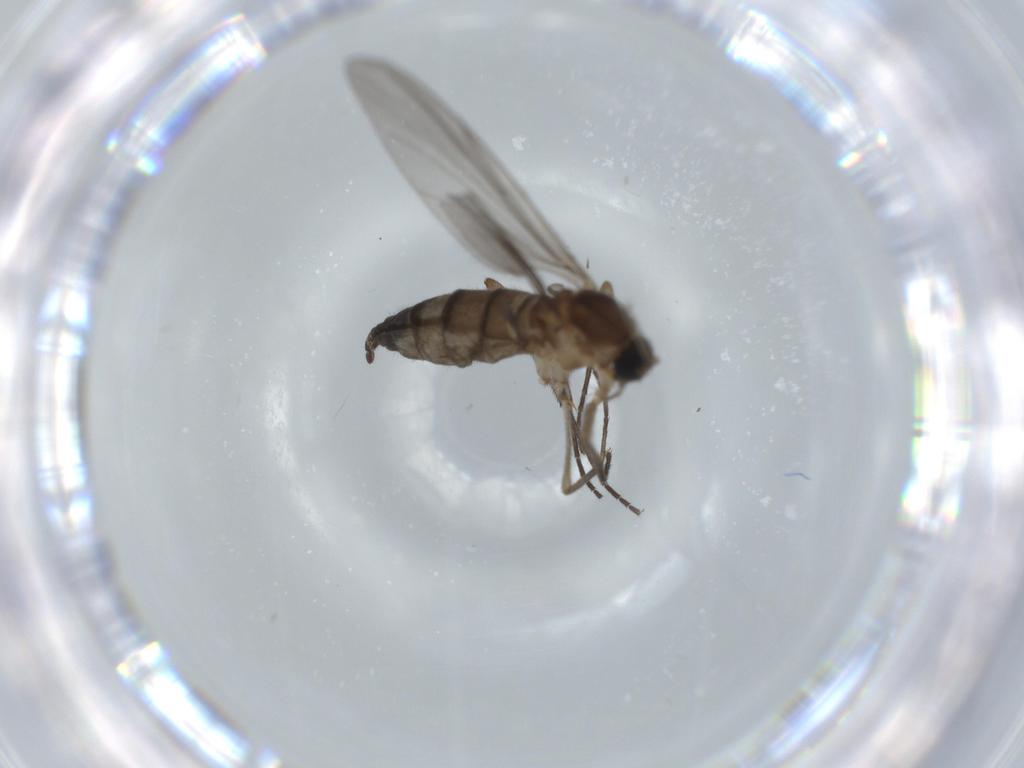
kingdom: Animalia
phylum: Arthropoda
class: Insecta
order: Diptera
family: Sciaridae
